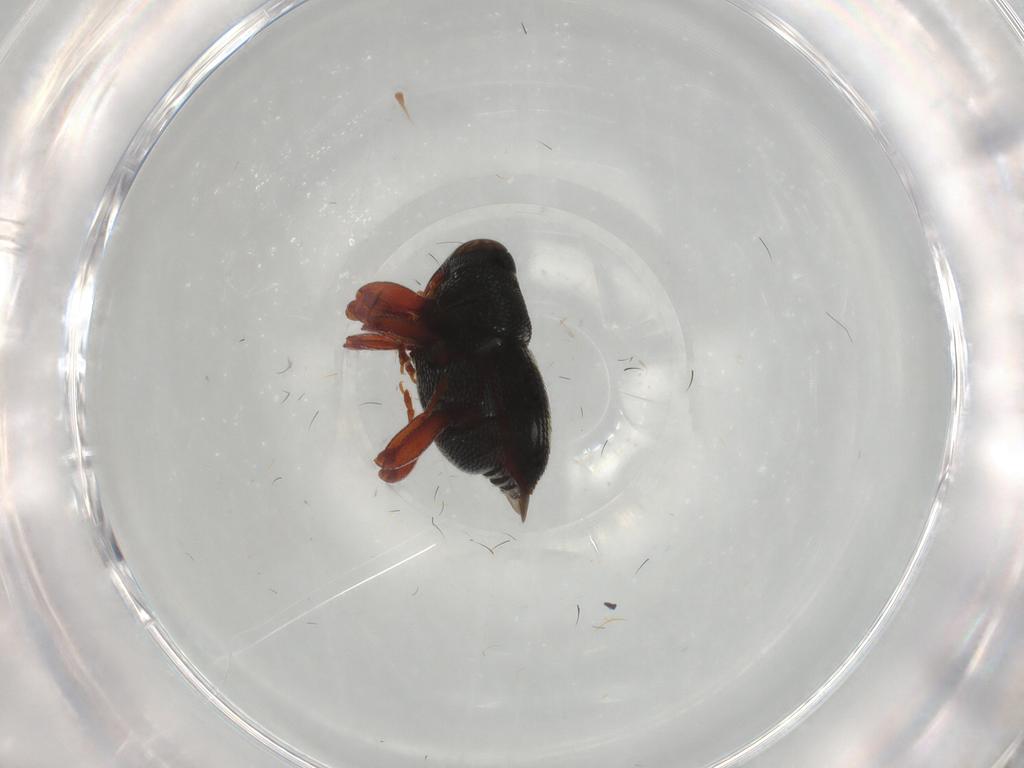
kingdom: Animalia
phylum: Arthropoda
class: Insecta
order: Coleoptera
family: Curculionidae
